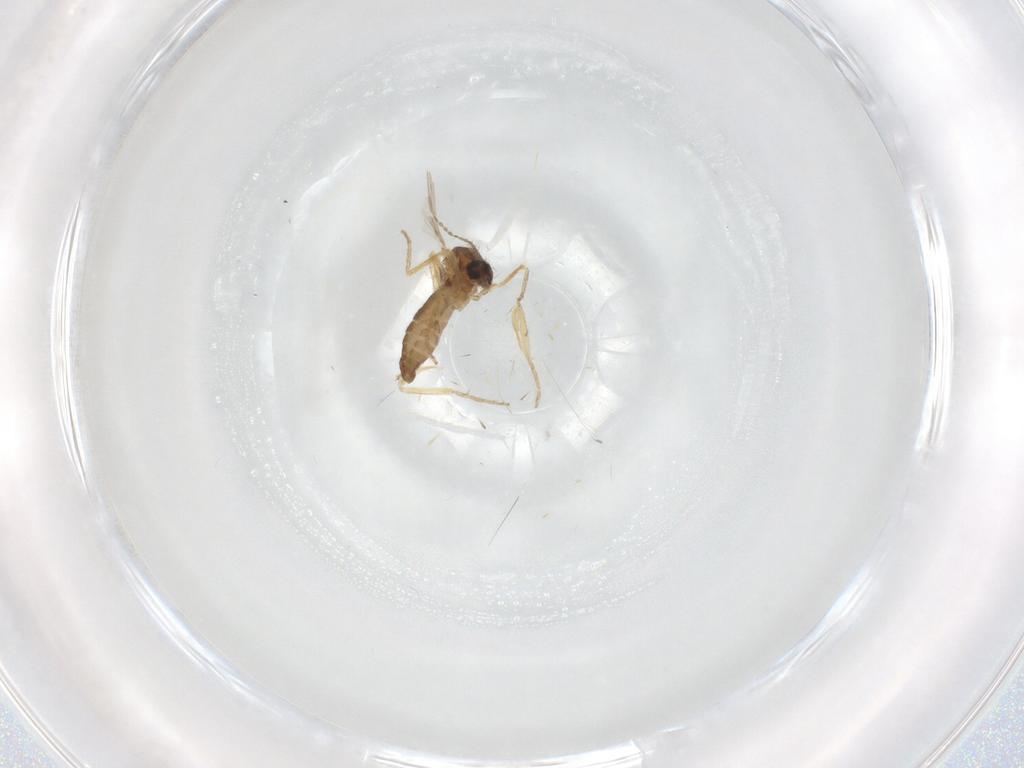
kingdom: Animalia
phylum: Arthropoda
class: Insecta
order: Diptera
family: Ceratopogonidae
